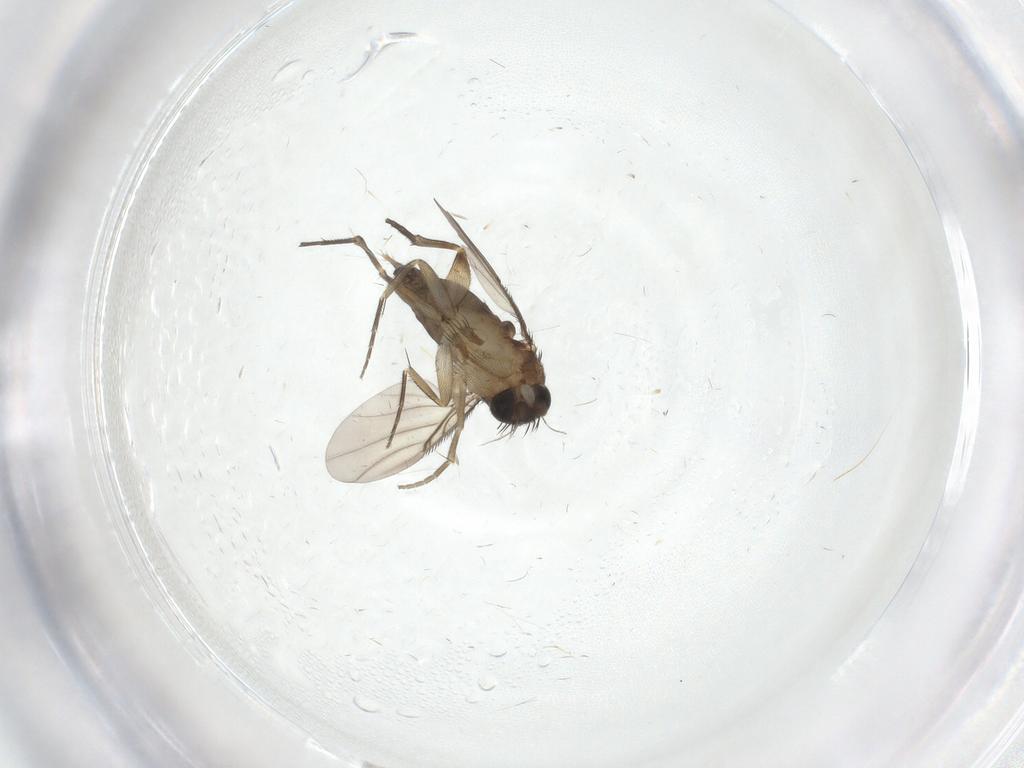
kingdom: Animalia
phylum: Arthropoda
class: Insecta
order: Diptera
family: Phoridae
